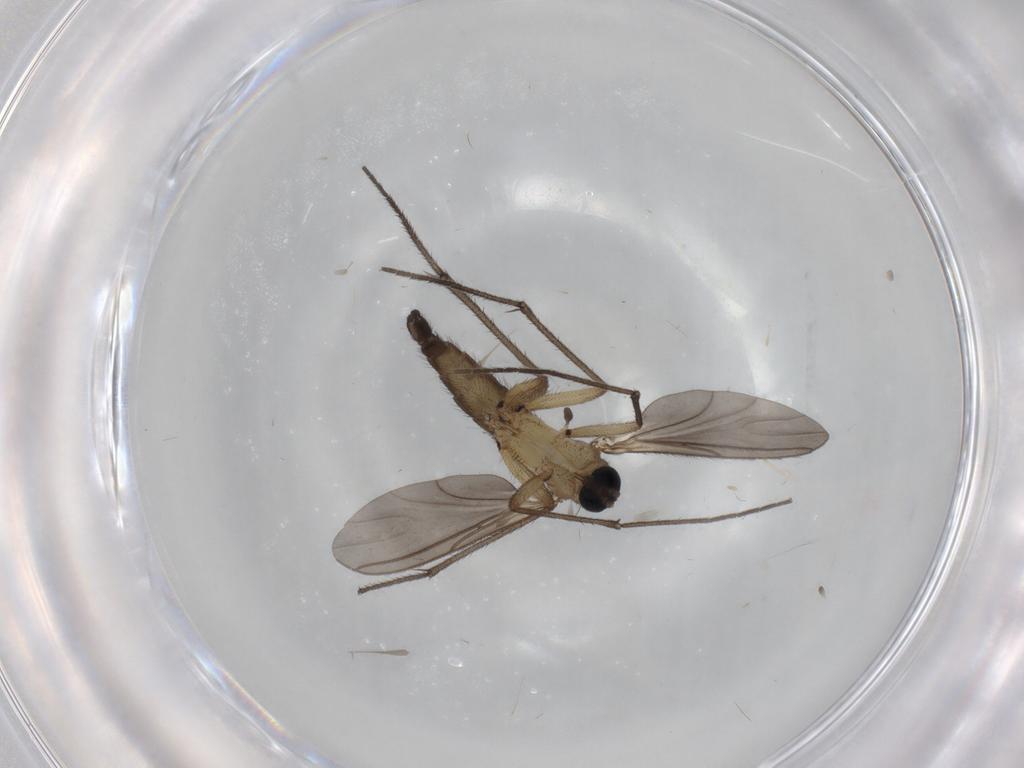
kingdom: Animalia
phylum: Arthropoda
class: Insecta
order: Diptera
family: Sciaridae
